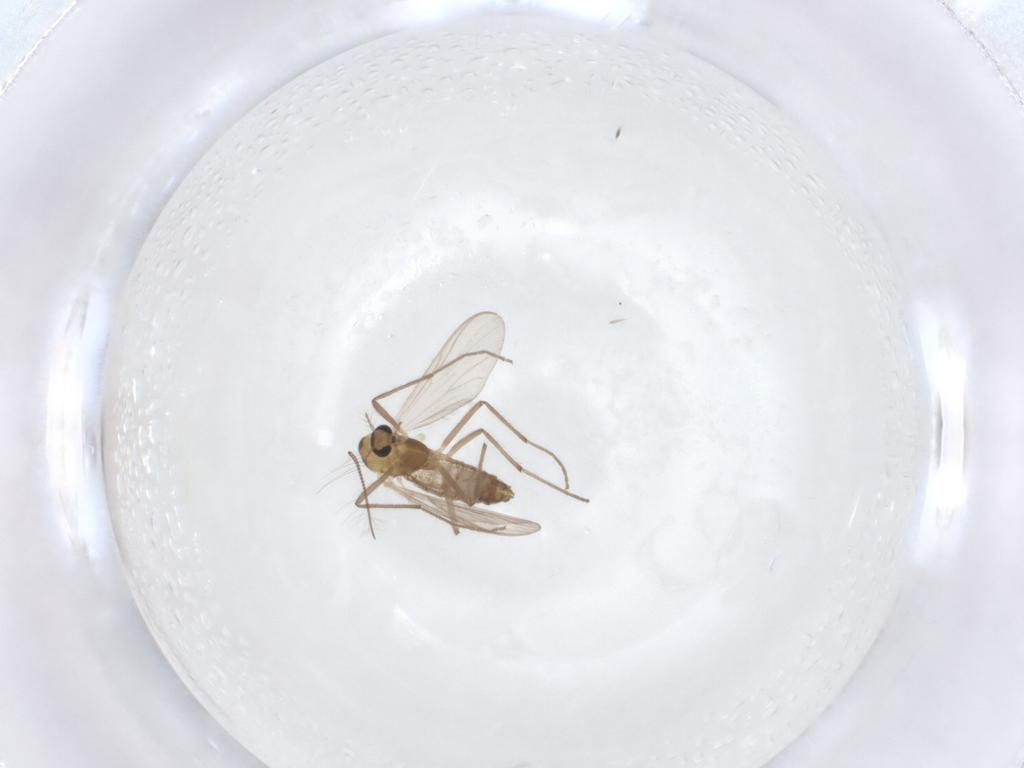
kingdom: Animalia
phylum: Arthropoda
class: Insecta
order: Diptera
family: Chironomidae
